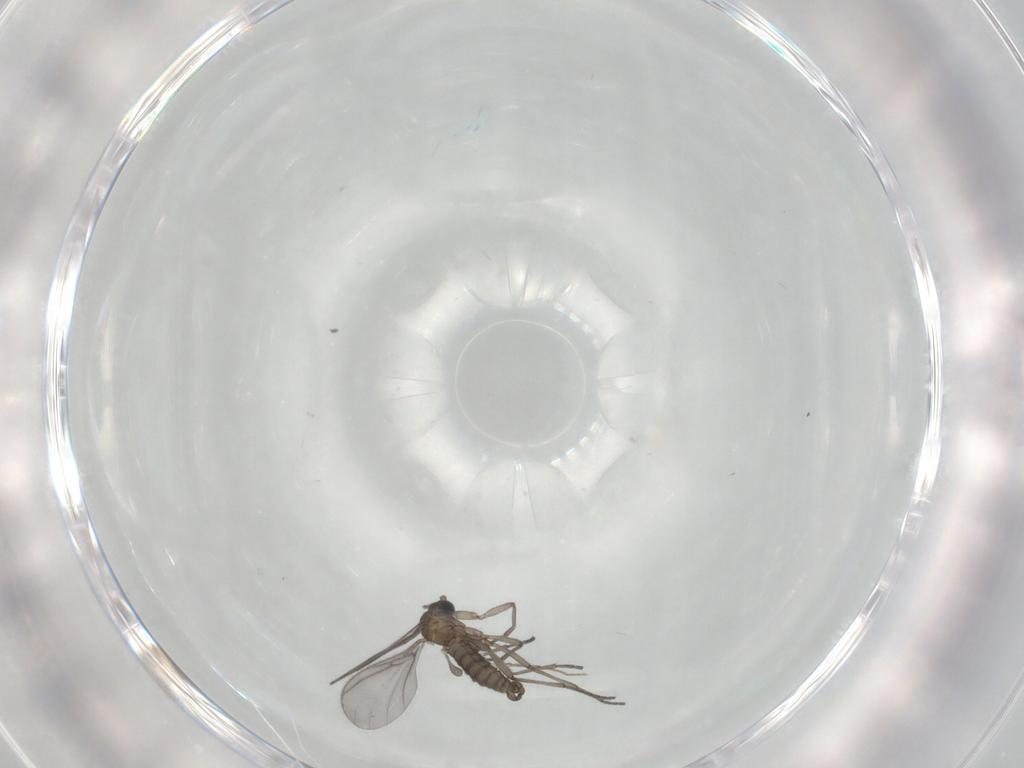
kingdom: Animalia
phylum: Arthropoda
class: Insecta
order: Diptera
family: Sciaridae
